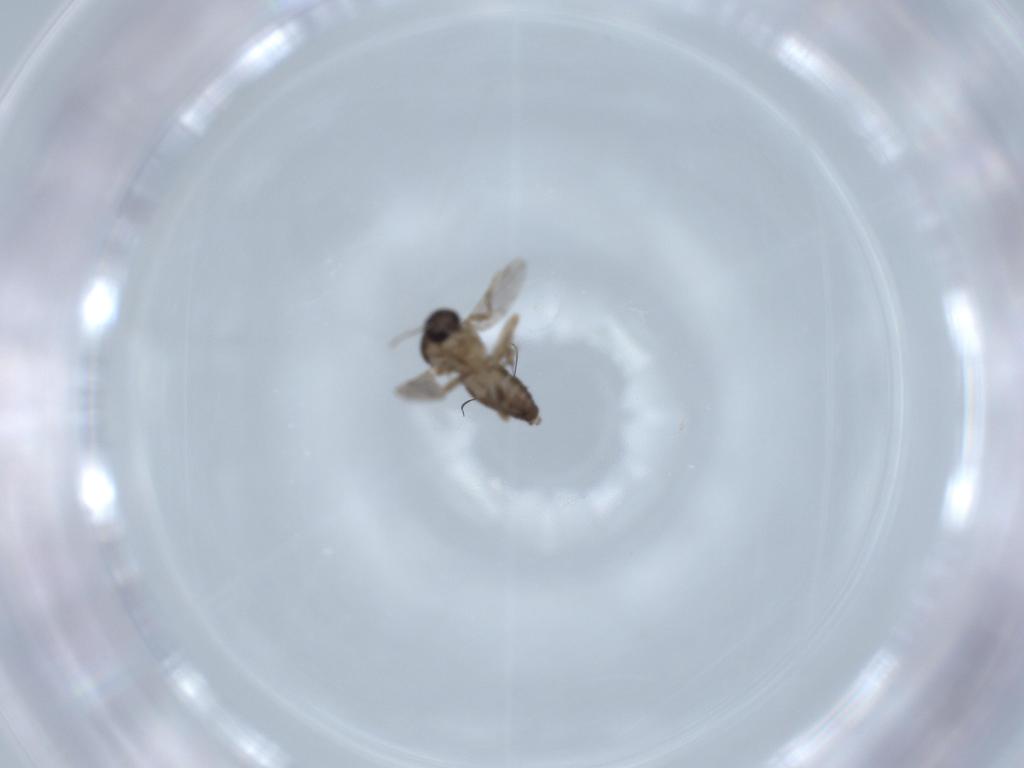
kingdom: Animalia
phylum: Arthropoda
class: Insecta
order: Diptera
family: Ceratopogonidae
